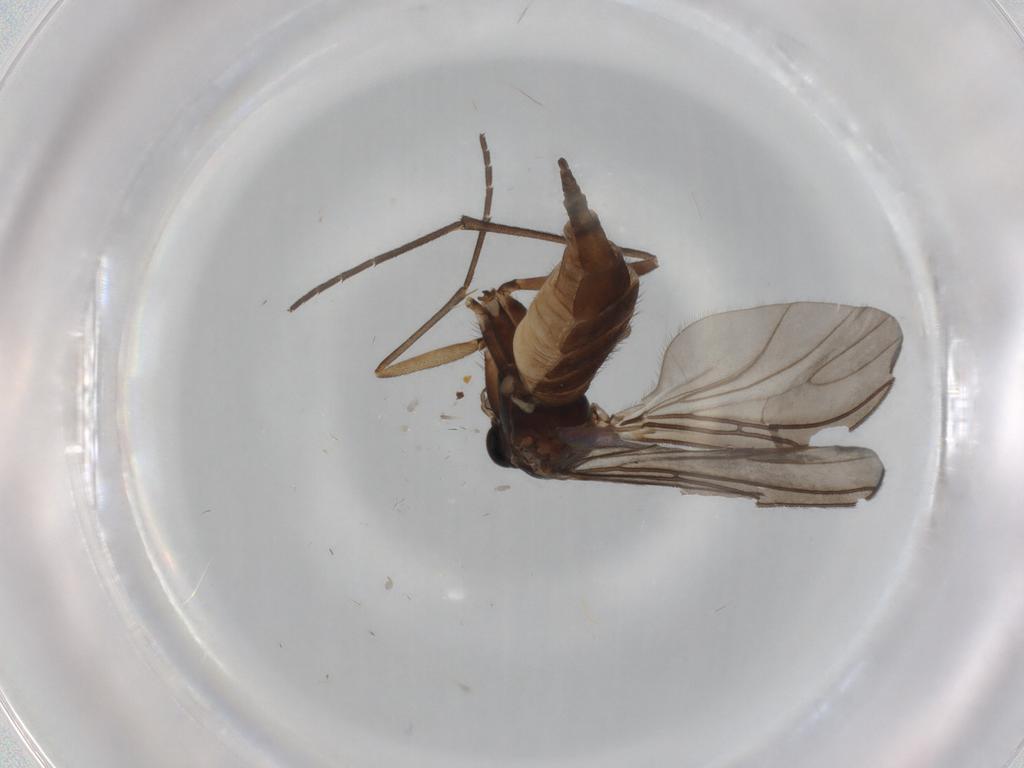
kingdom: Animalia
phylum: Arthropoda
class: Insecta
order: Diptera
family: Sciaridae
